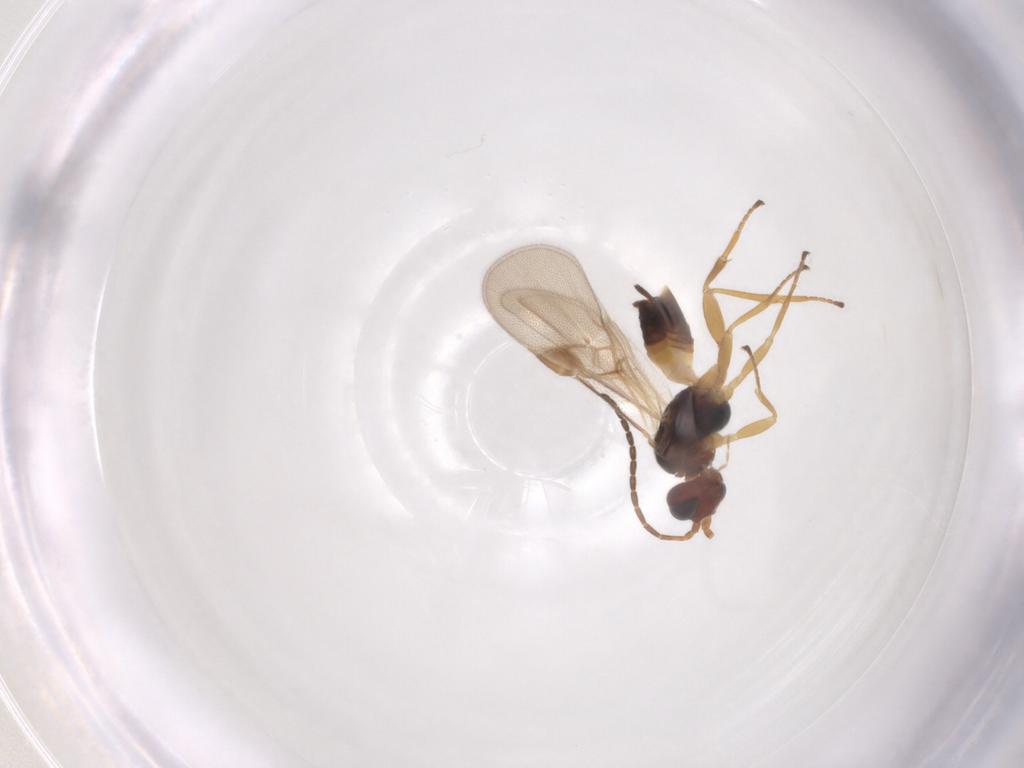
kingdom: Animalia
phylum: Arthropoda
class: Insecta
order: Hymenoptera
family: Braconidae
